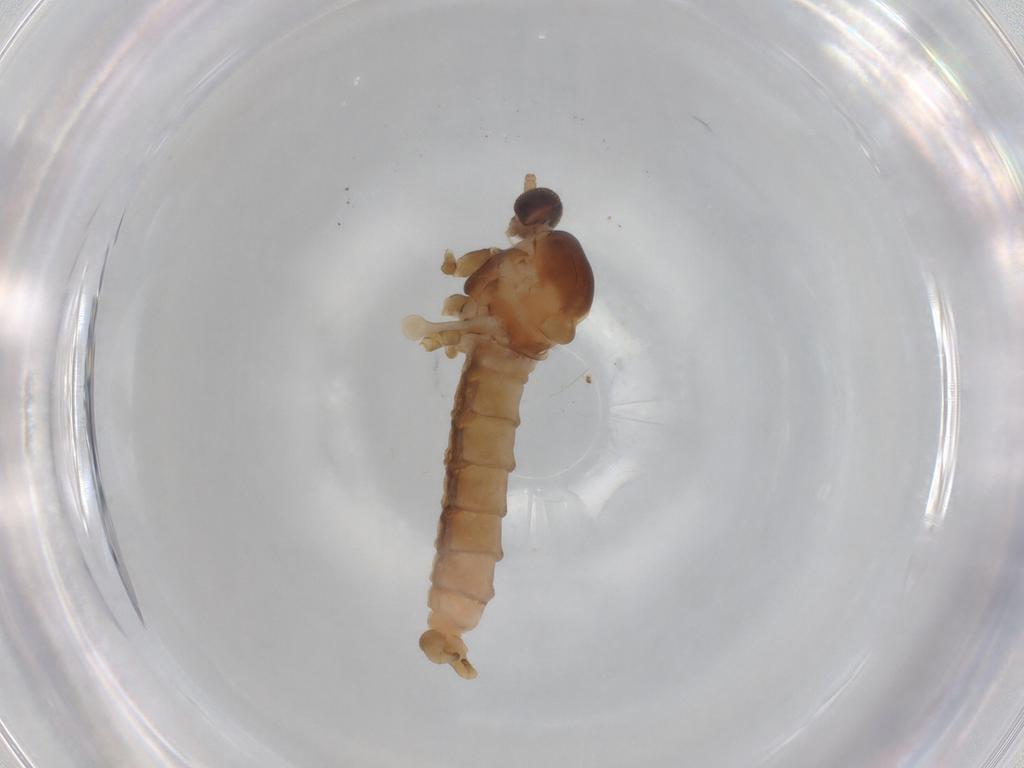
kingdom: Animalia
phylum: Arthropoda
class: Insecta
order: Diptera
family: Cecidomyiidae
